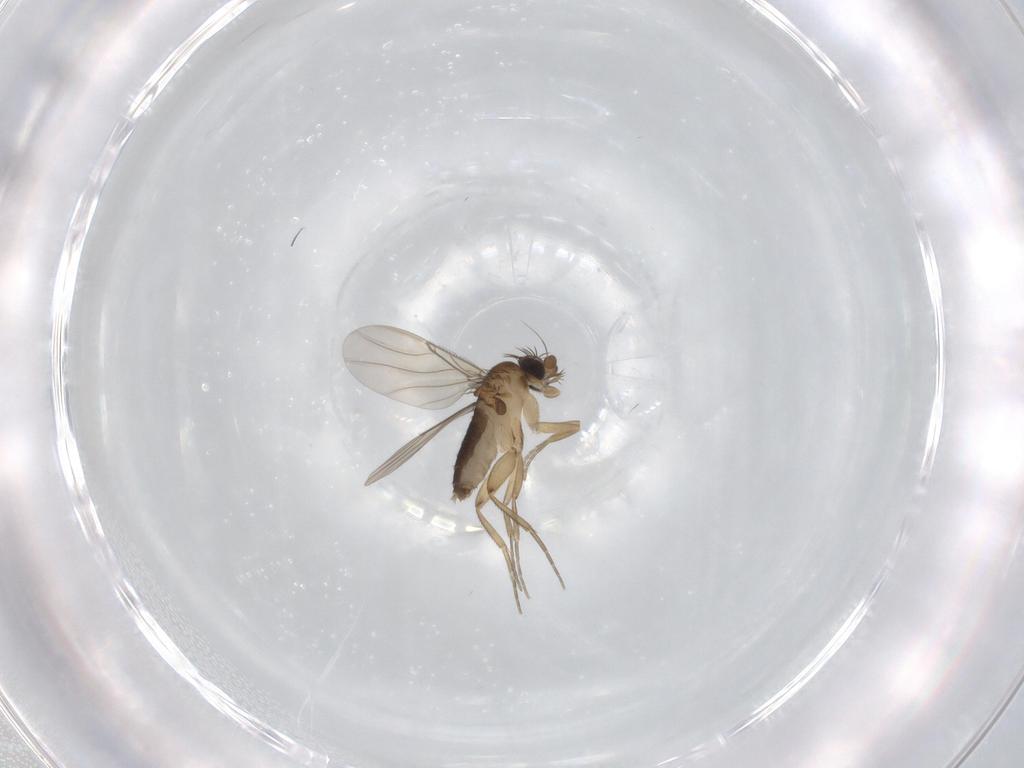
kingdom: Animalia
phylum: Arthropoda
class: Insecta
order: Diptera
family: Phoridae
